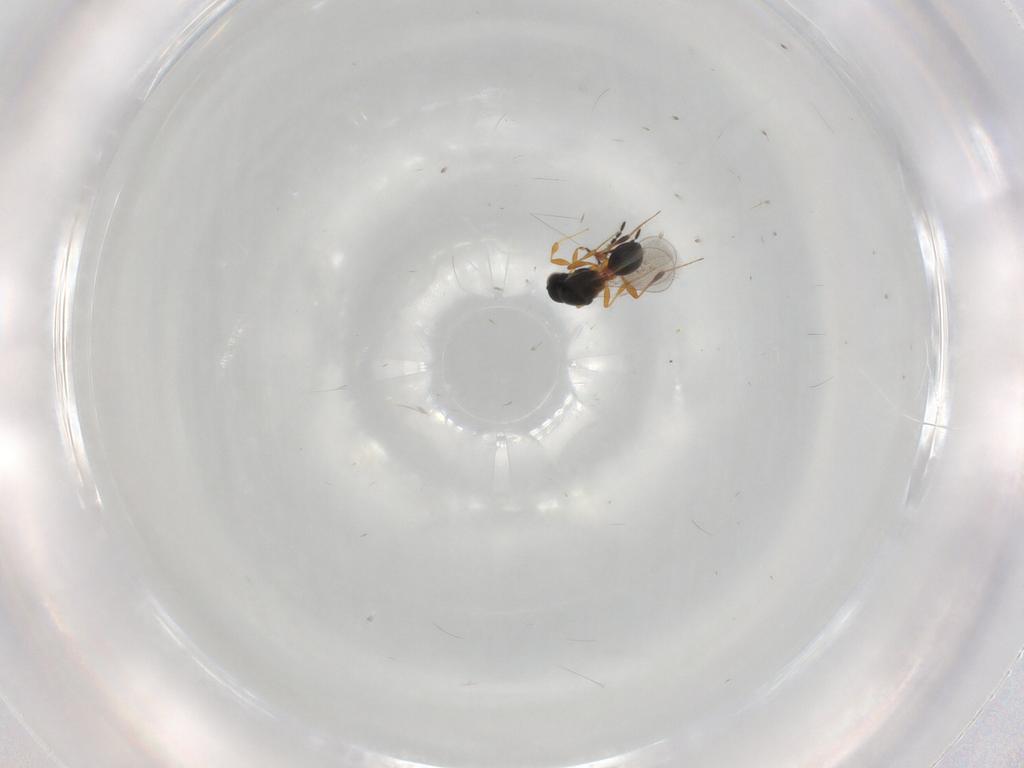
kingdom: Animalia
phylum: Arthropoda
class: Insecta
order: Hymenoptera
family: Platygastridae
